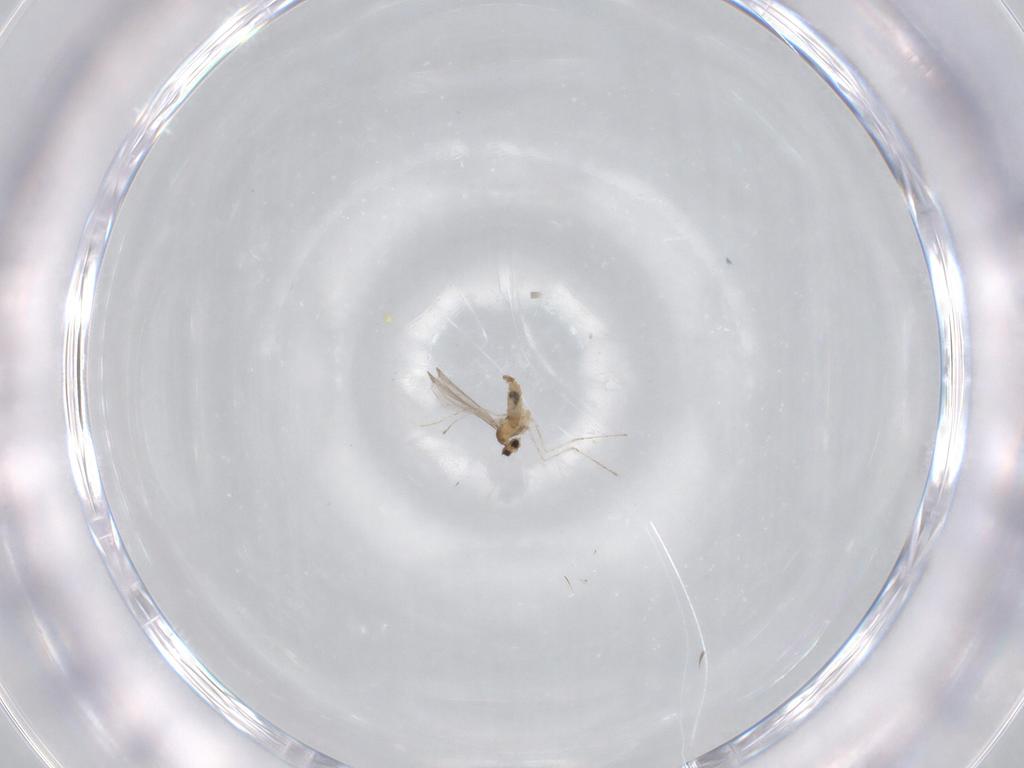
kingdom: Animalia
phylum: Arthropoda
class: Insecta
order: Diptera
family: Cecidomyiidae
